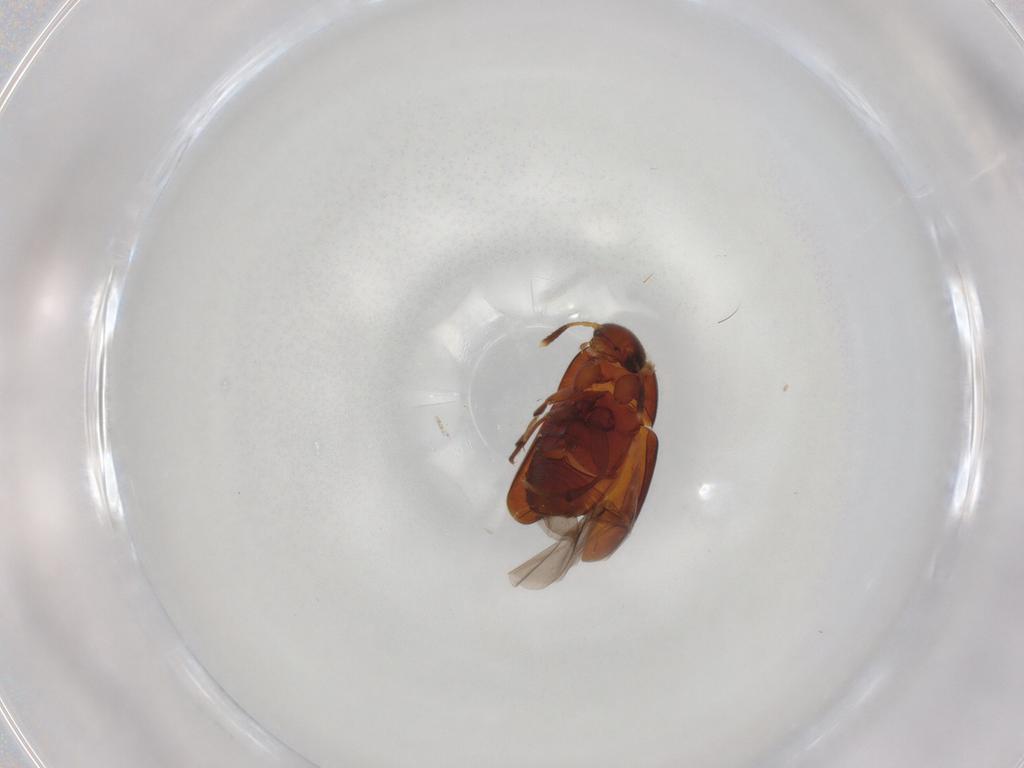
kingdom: Animalia
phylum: Arthropoda
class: Insecta
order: Coleoptera
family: Leiodidae
